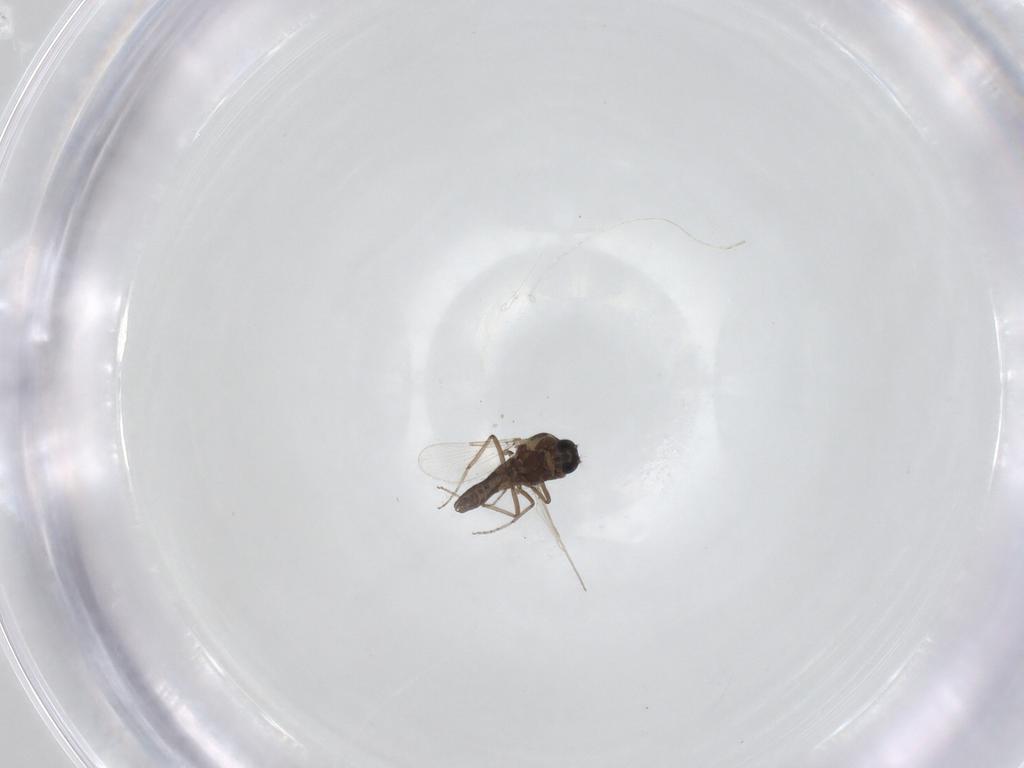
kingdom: Animalia
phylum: Arthropoda
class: Insecta
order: Diptera
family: Ceratopogonidae
